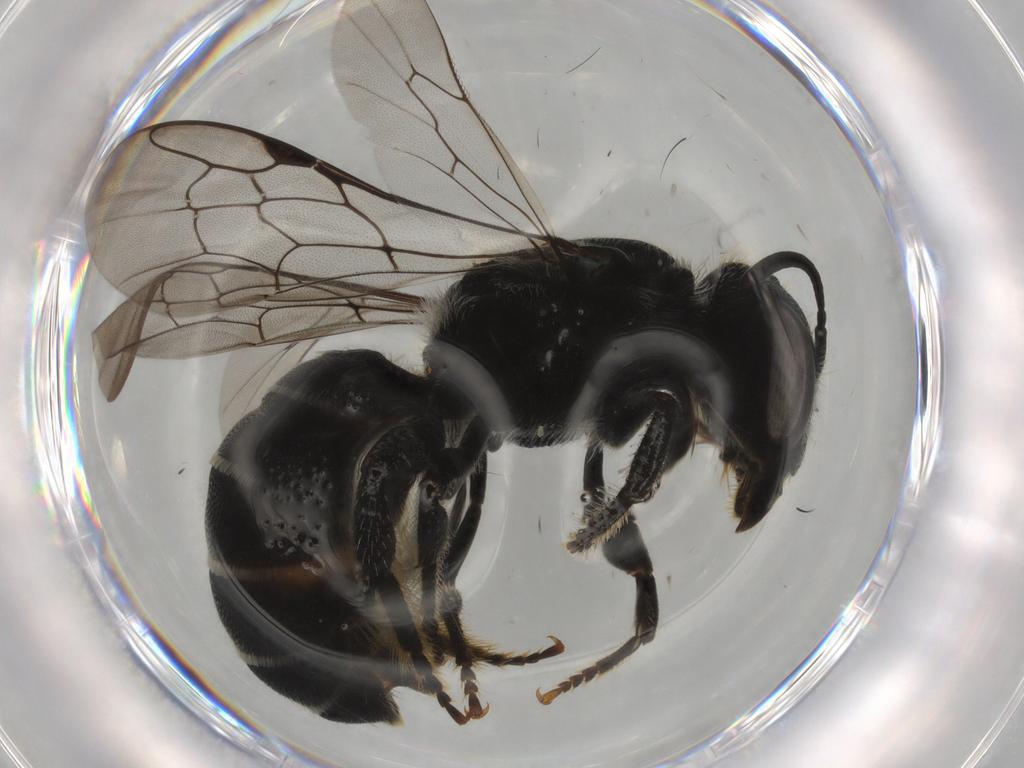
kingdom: Animalia
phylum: Arthropoda
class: Insecta
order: Hymenoptera
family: Megachilidae
